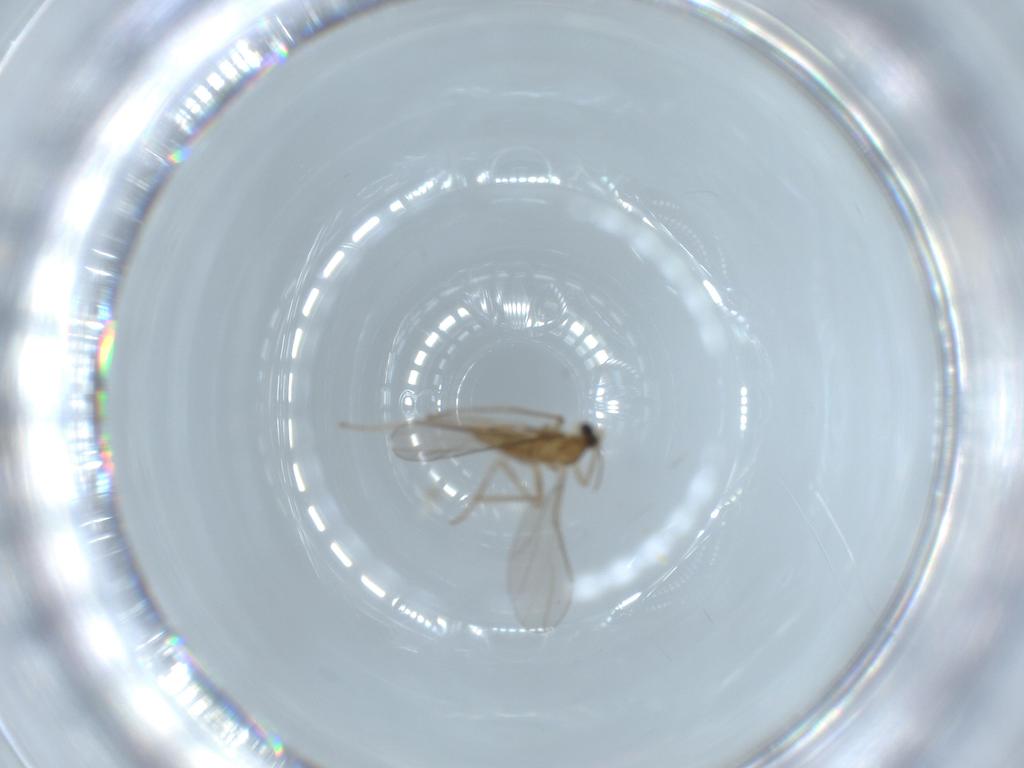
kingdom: Animalia
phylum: Arthropoda
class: Insecta
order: Diptera
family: Cecidomyiidae
